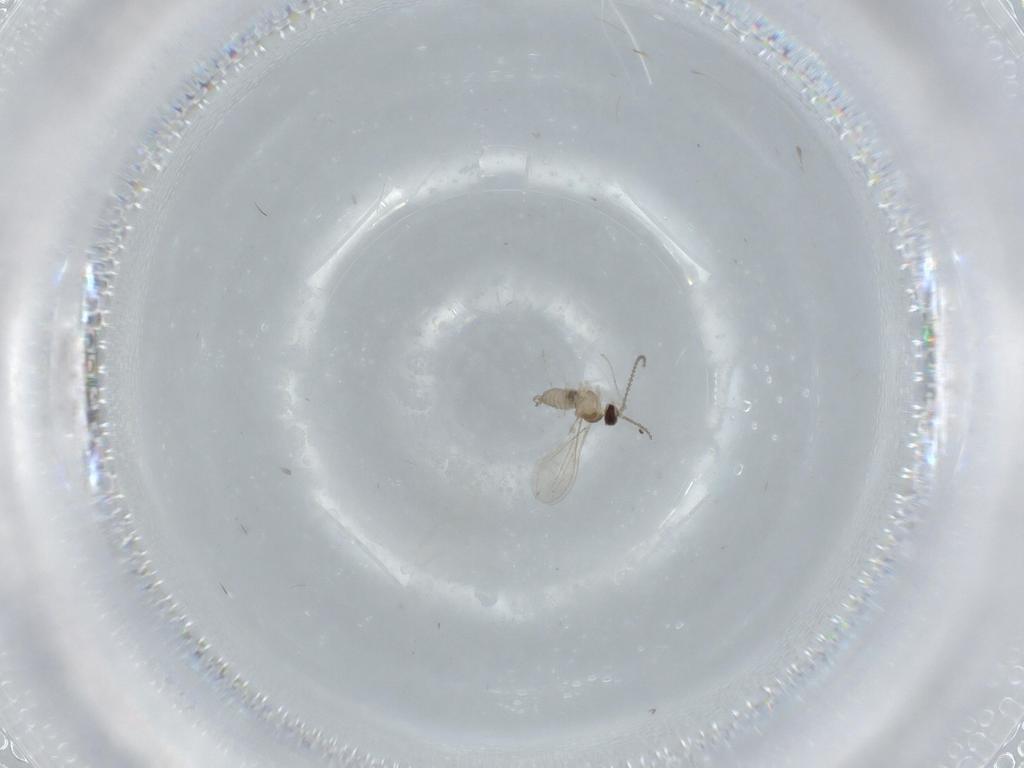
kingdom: Animalia
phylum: Arthropoda
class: Insecta
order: Diptera
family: Cecidomyiidae
